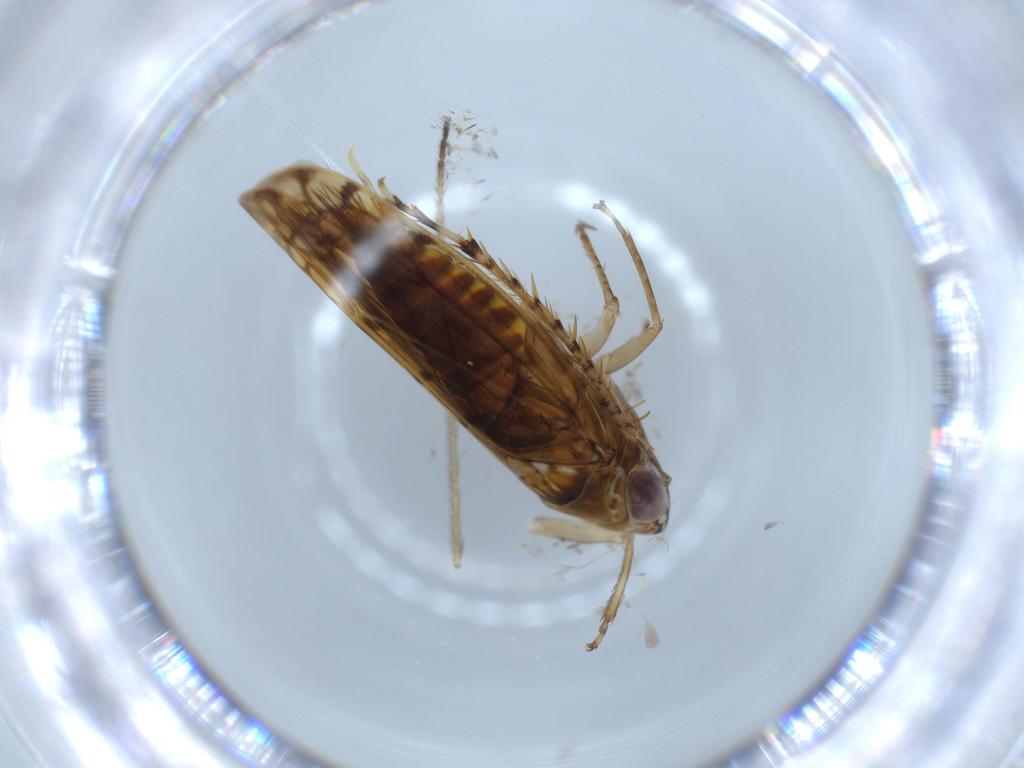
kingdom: Animalia
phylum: Arthropoda
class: Insecta
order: Hemiptera
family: Cicadellidae
